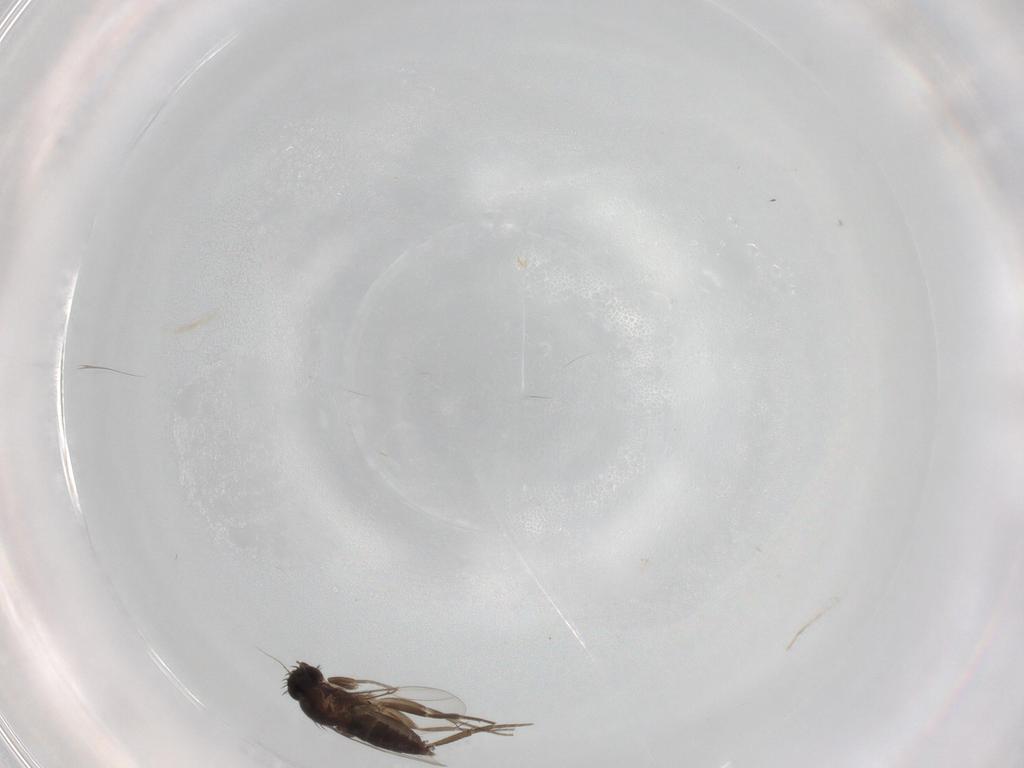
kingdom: Animalia
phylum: Arthropoda
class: Insecta
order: Diptera
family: Phoridae
